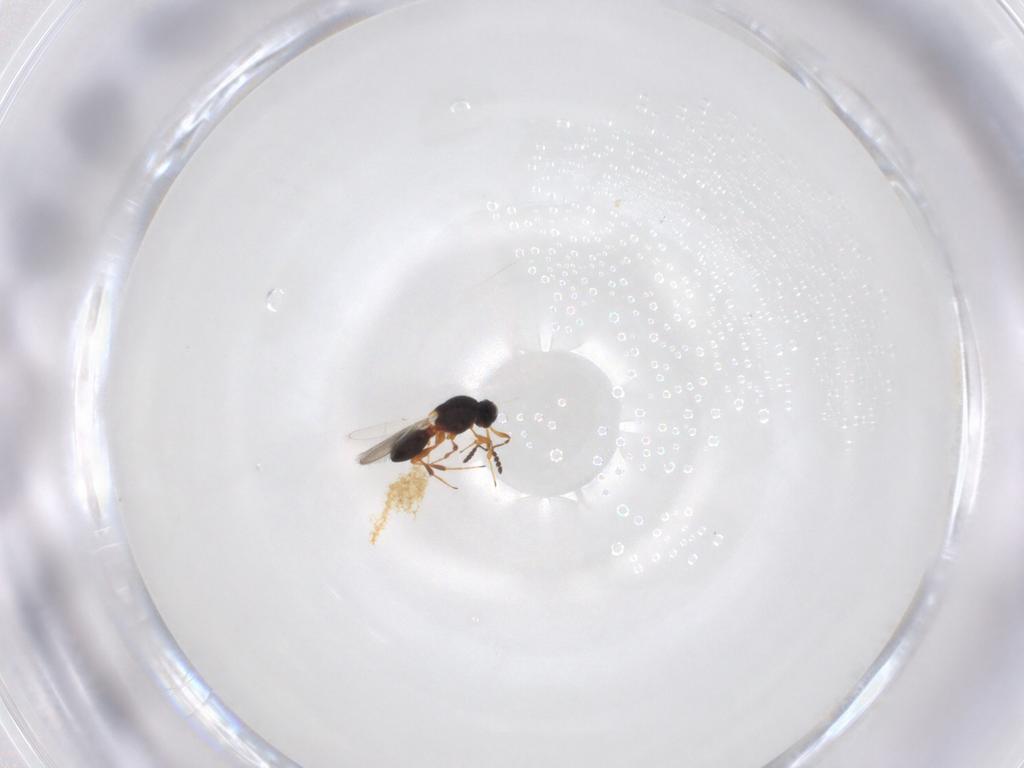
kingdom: Animalia
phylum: Arthropoda
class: Insecta
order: Hymenoptera
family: Platygastridae
